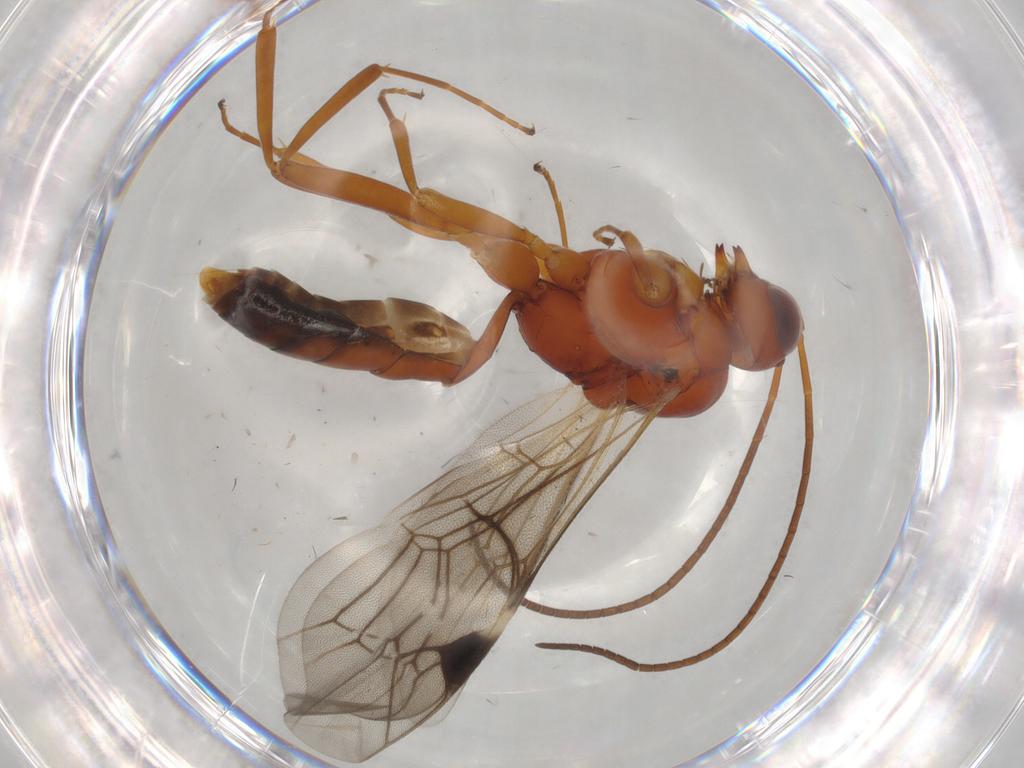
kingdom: Animalia
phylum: Arthropoda
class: Insecta
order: Hymenoptera
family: Ichneumonidae
